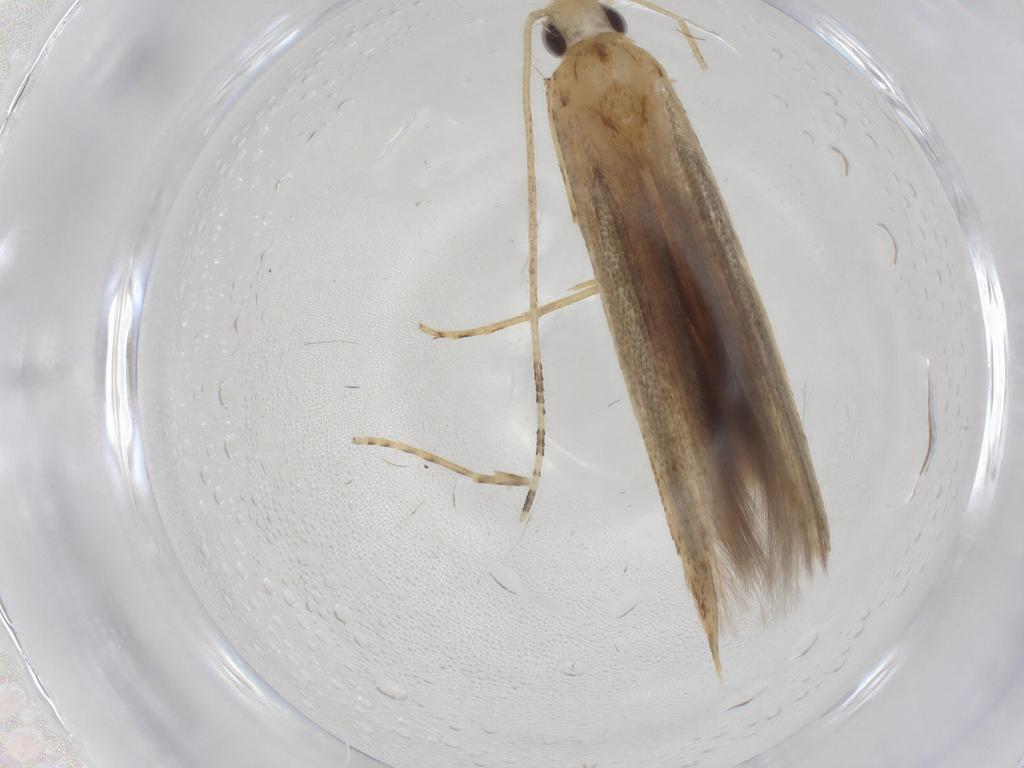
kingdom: Animalia
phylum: Arthropoda
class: Insecta
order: Lepidoptera
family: Batrachedridae
